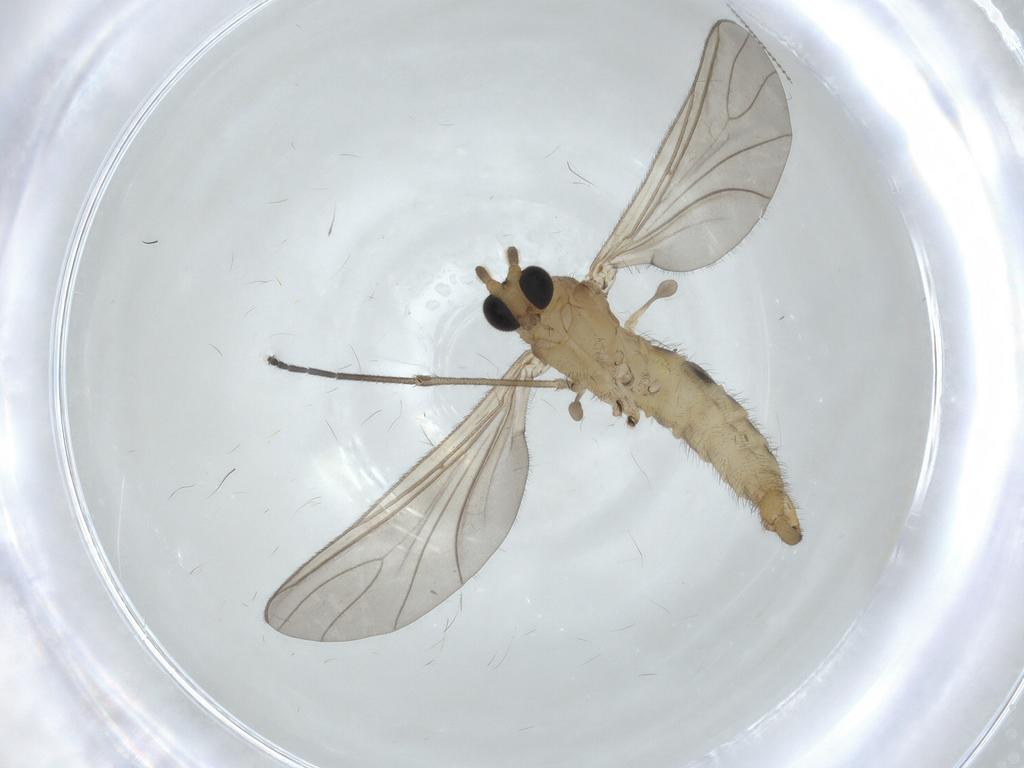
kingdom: Animalia
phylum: Arthropoda
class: Insecta
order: Diptera
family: Sciaridae
